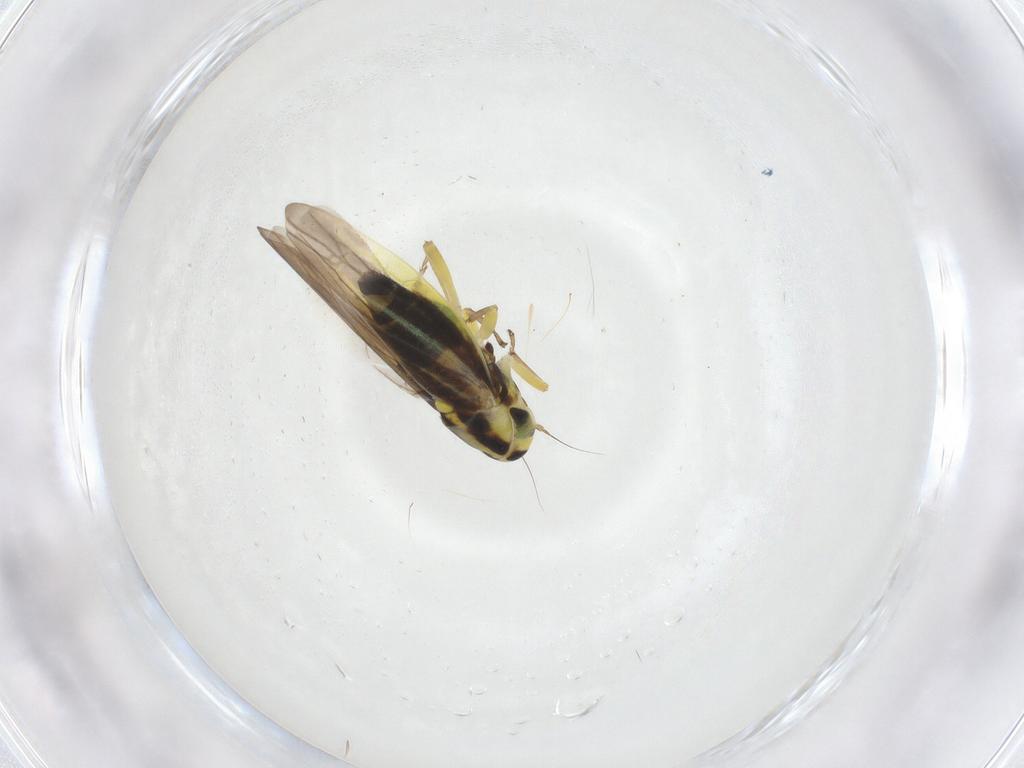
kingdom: Animalia
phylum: Arthropoda
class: Insecta
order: Hemiptera
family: Cicadellidae
